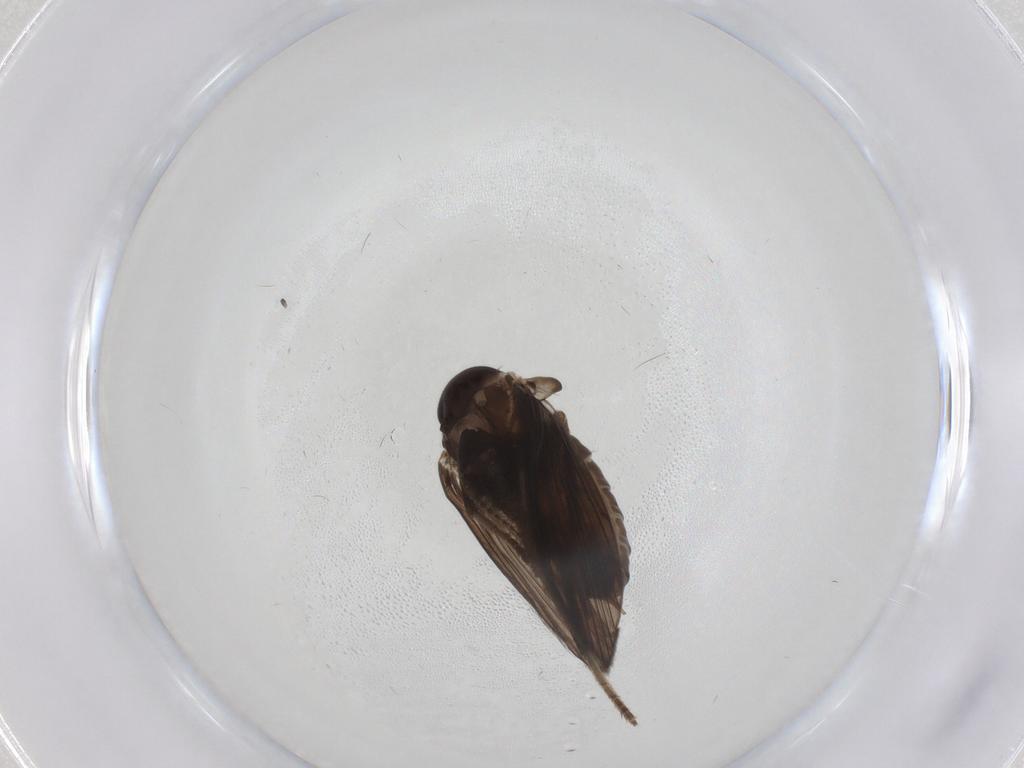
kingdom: Animalia
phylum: Arthropoda
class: Insecta
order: Diptera
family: Psychodidae
